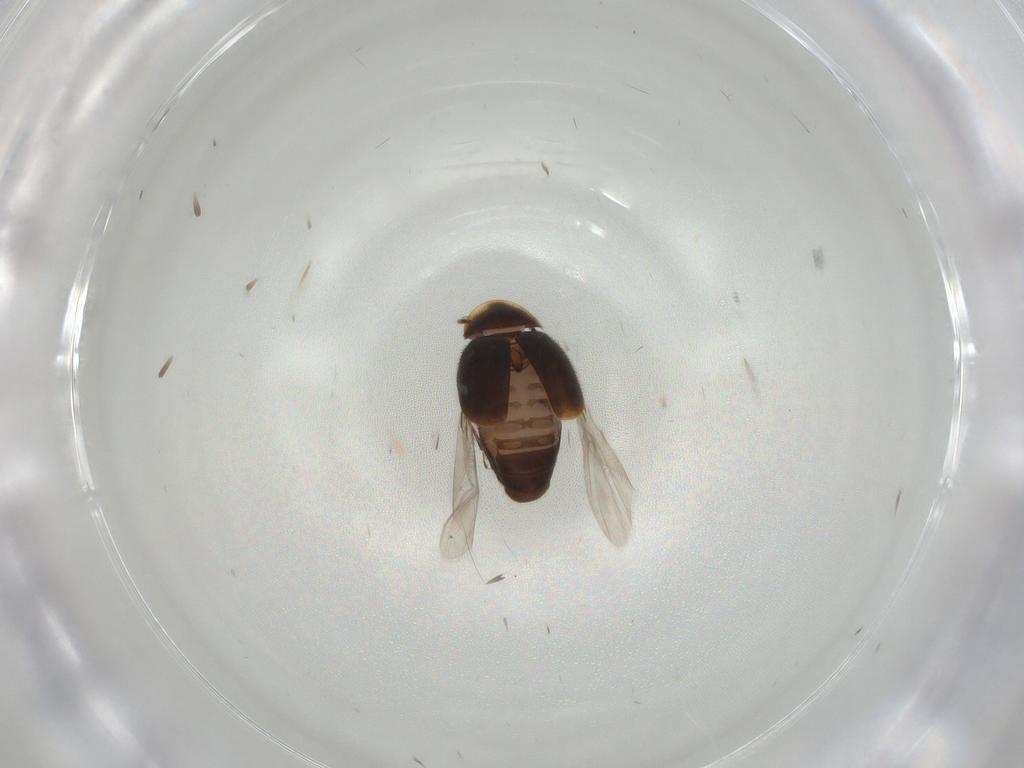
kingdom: Animalia
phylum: Arthropoda
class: Insecta
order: Coleoptera
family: Corylophidae
